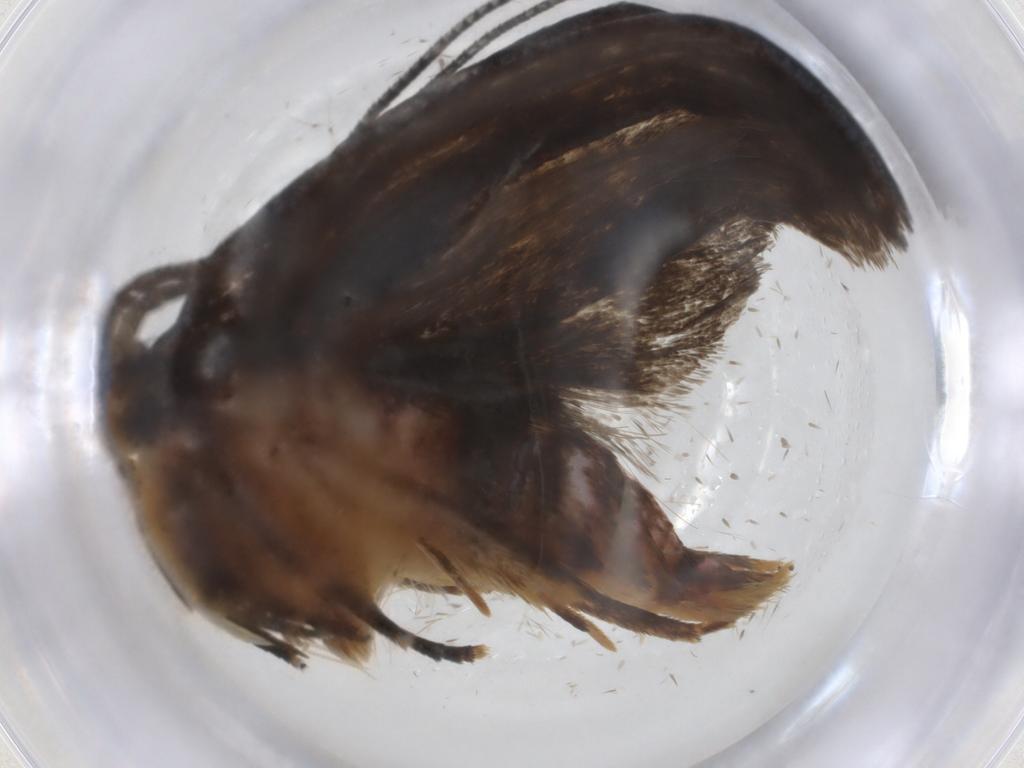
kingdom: Animalia
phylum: Arthropoda
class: Insecta
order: Lepidoptera
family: Autostichidae
